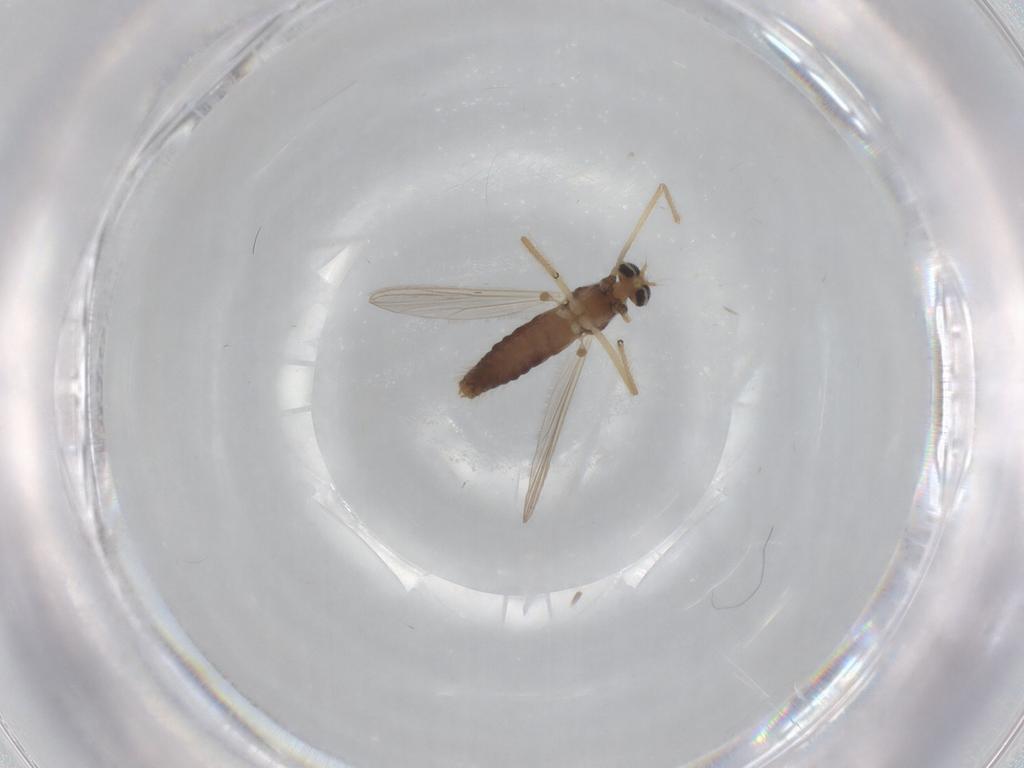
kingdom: Animalia
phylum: Arthropoda
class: Insecta
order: Diptera
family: Chironomidae
